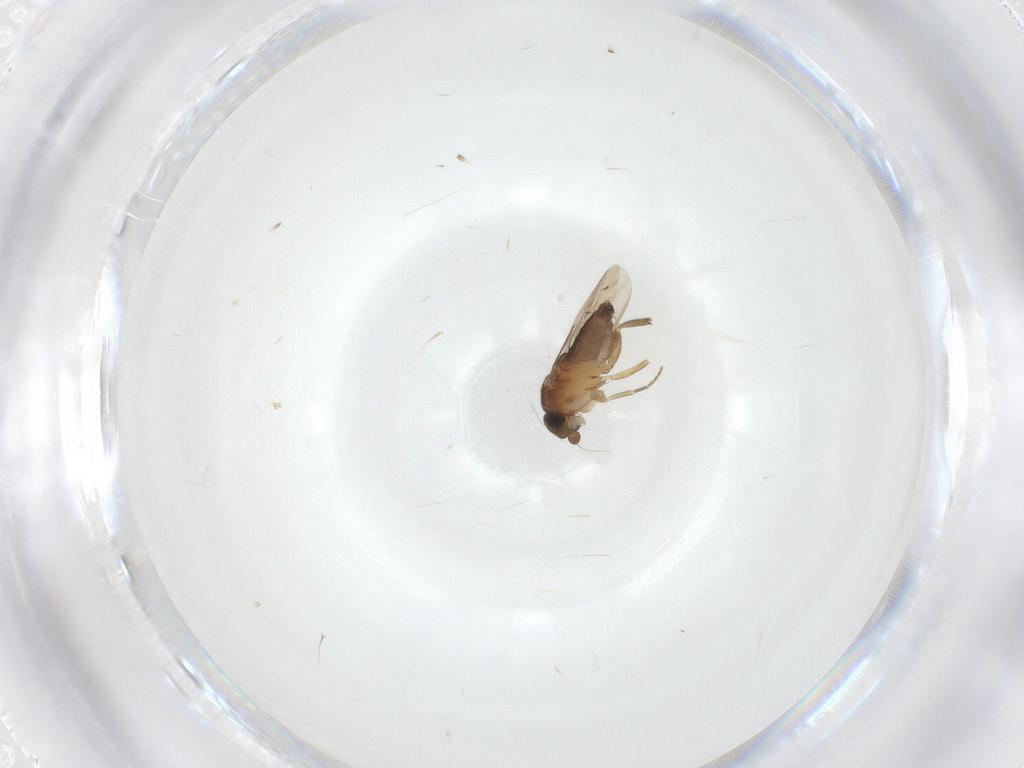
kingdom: Animalia
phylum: Arthropoda
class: Insecta
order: Diptera
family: Phoridae
